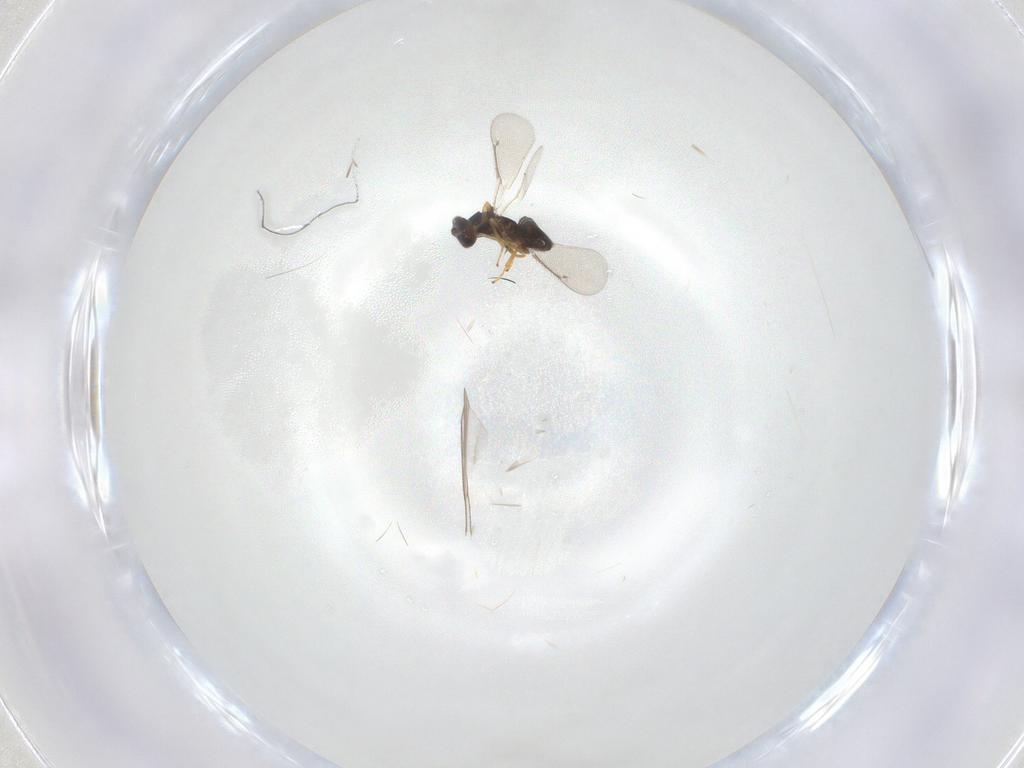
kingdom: Animalia
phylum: Arthropoda
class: Insecta
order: Hymenoptera
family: Eulophidae
